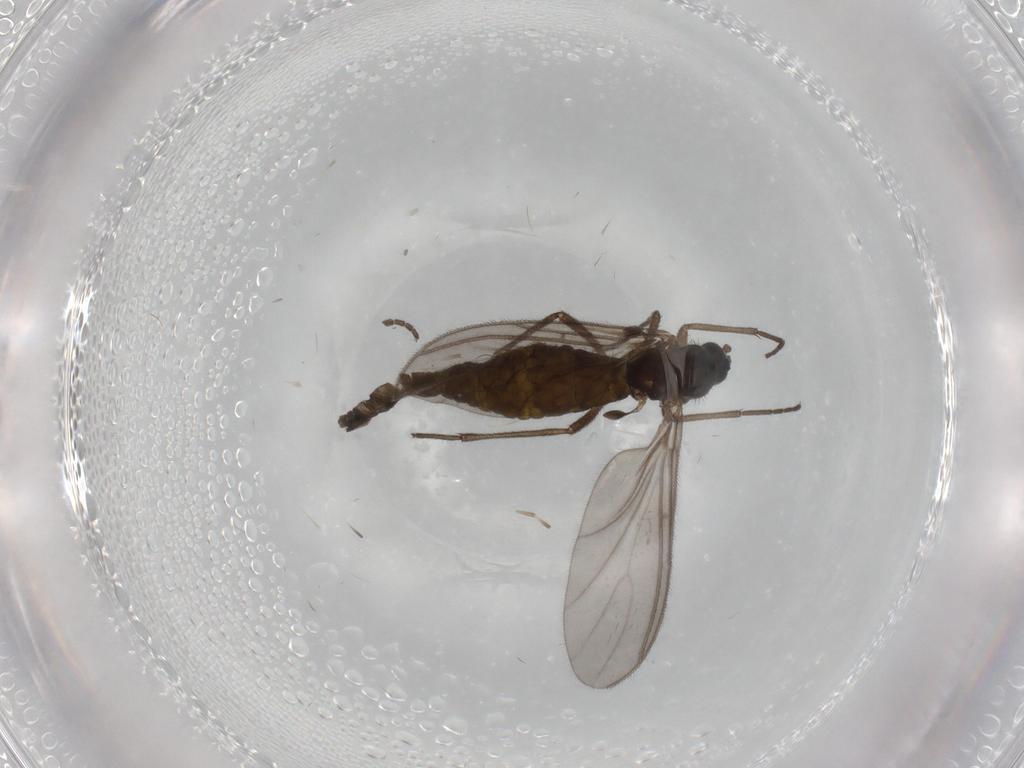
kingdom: Animalia
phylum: Arthropoda
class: Insecta
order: Diptera
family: Sciaridae
